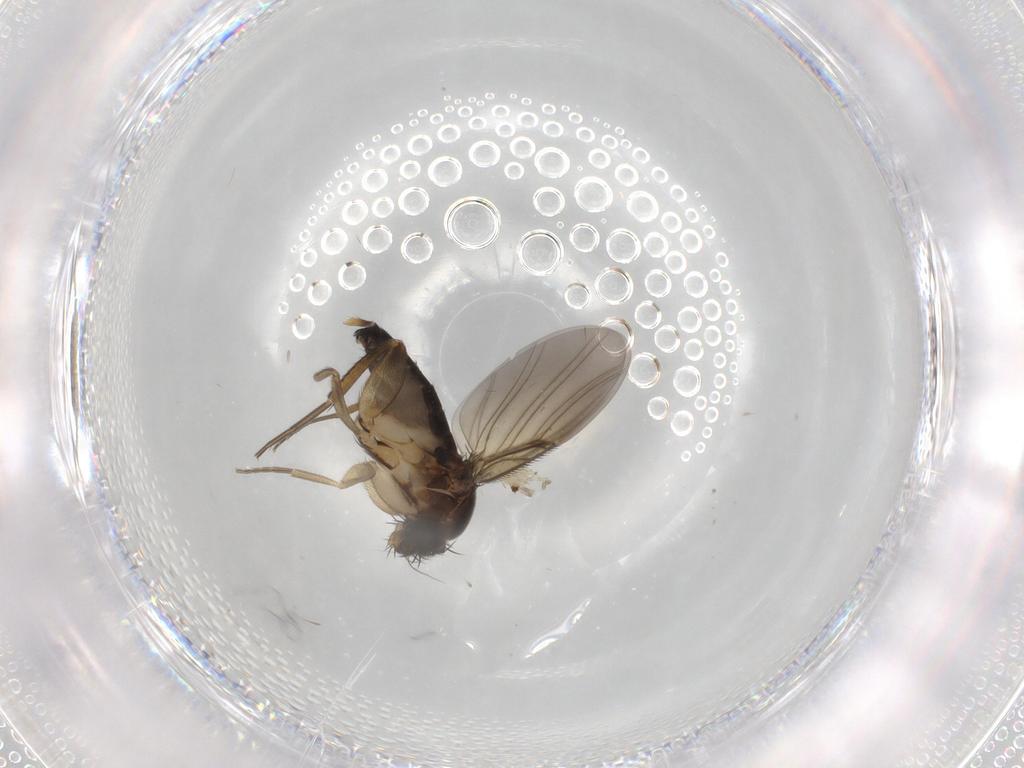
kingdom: Animalia
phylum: Arthropoda
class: Insecta
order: Diptera
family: Phoridae
